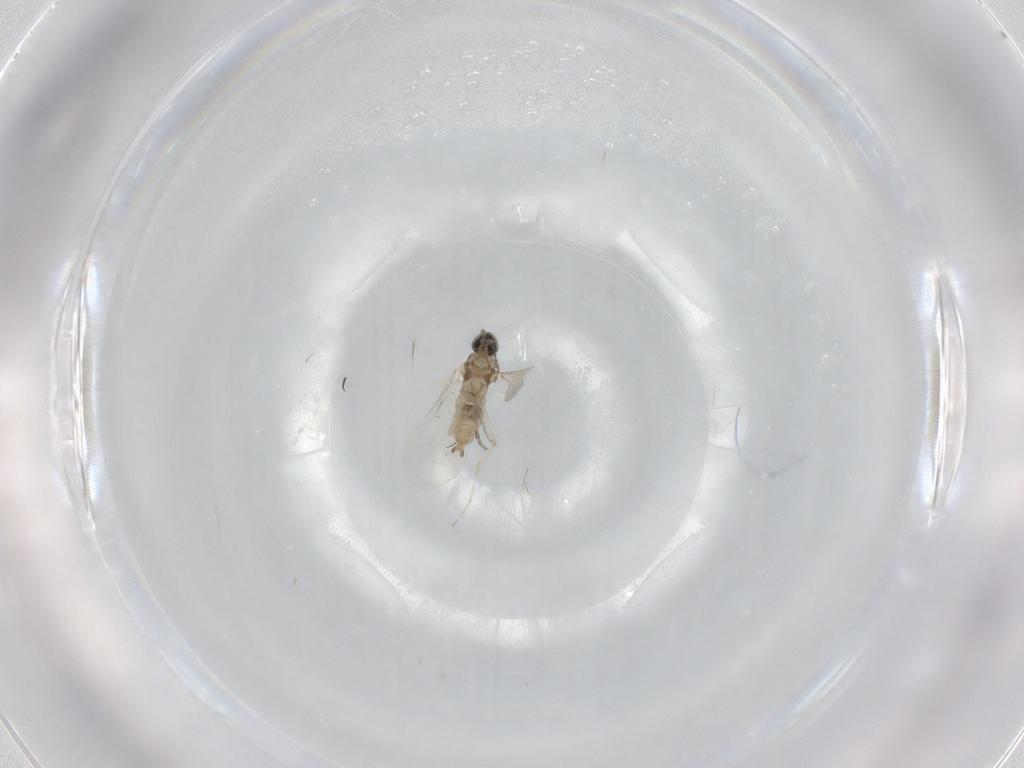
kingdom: Animalia
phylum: Arthropoda
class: Insecta
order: Diptera
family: Cecidomyiidae
